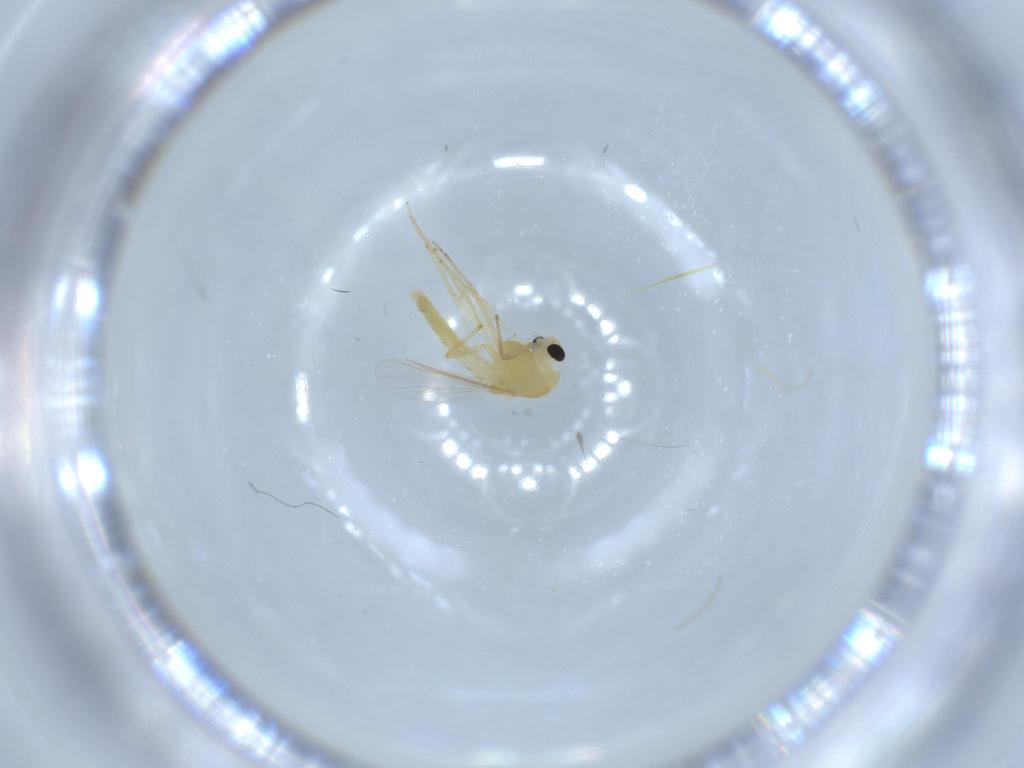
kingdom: Animalia
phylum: Arthropoda
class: Insecta
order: Diptera
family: Chironomidae
